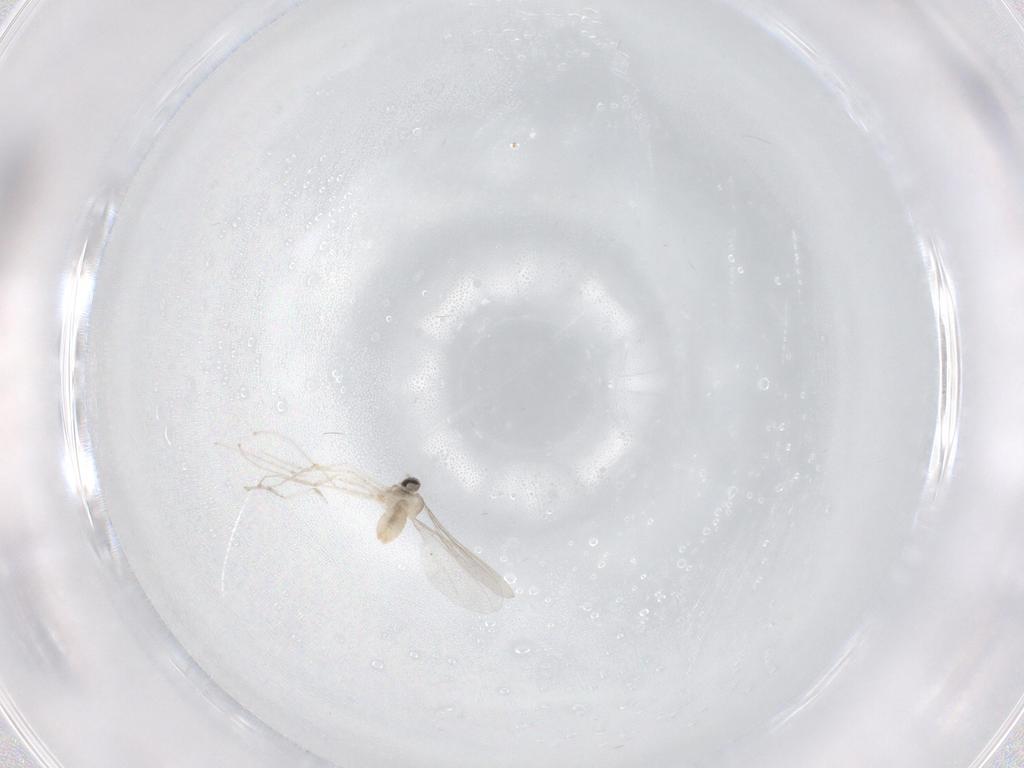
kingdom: Animalia
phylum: Arthropoda
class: Insecta
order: Diptera
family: Cecidomyiidae
